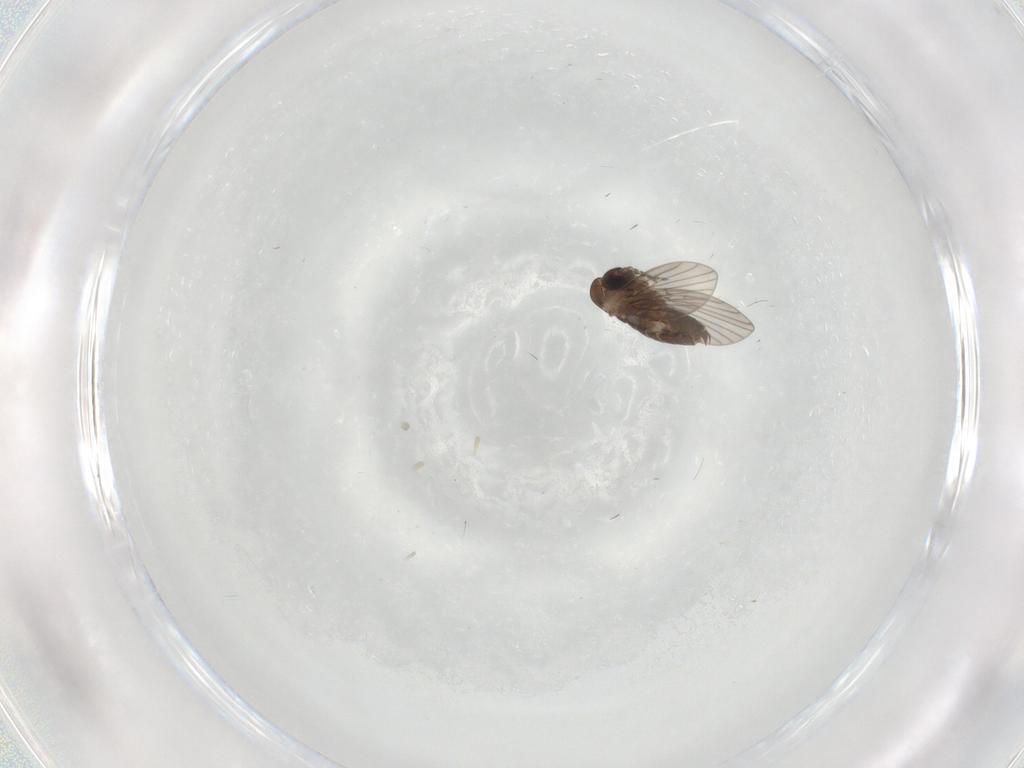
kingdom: Animalia
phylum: Arthropoda
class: Insecta
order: Diptera
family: Cecidomyiidae
